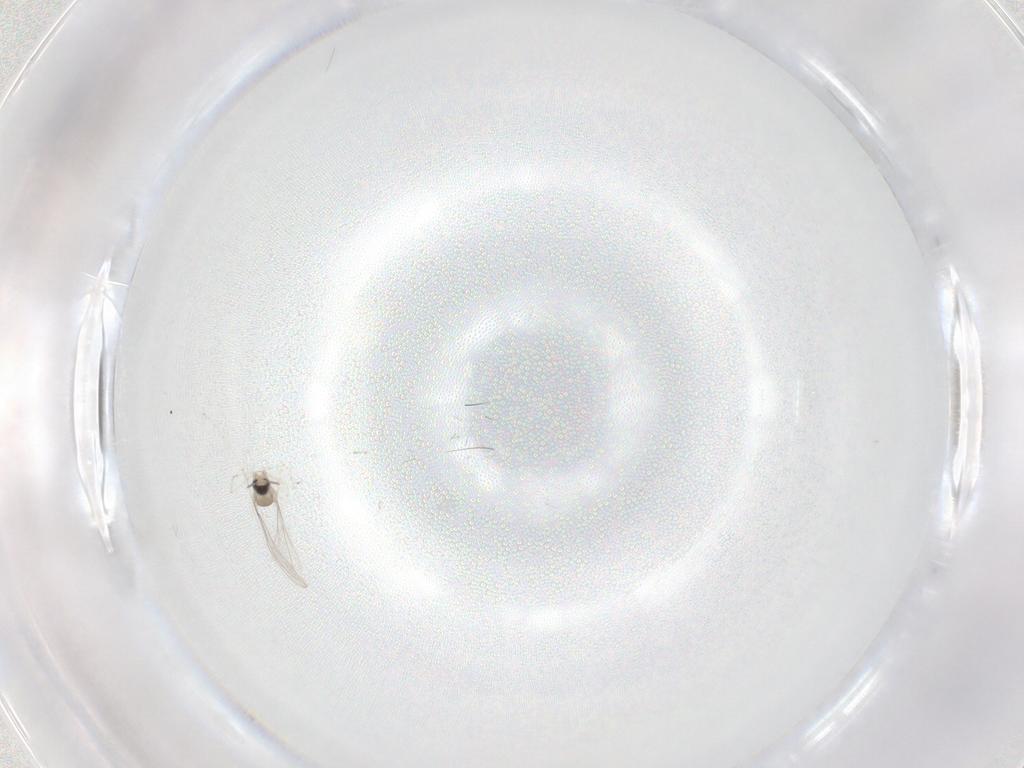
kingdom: Animalia
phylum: Arthropoda
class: Insecta
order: Diptera
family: Cecidomyiidae
